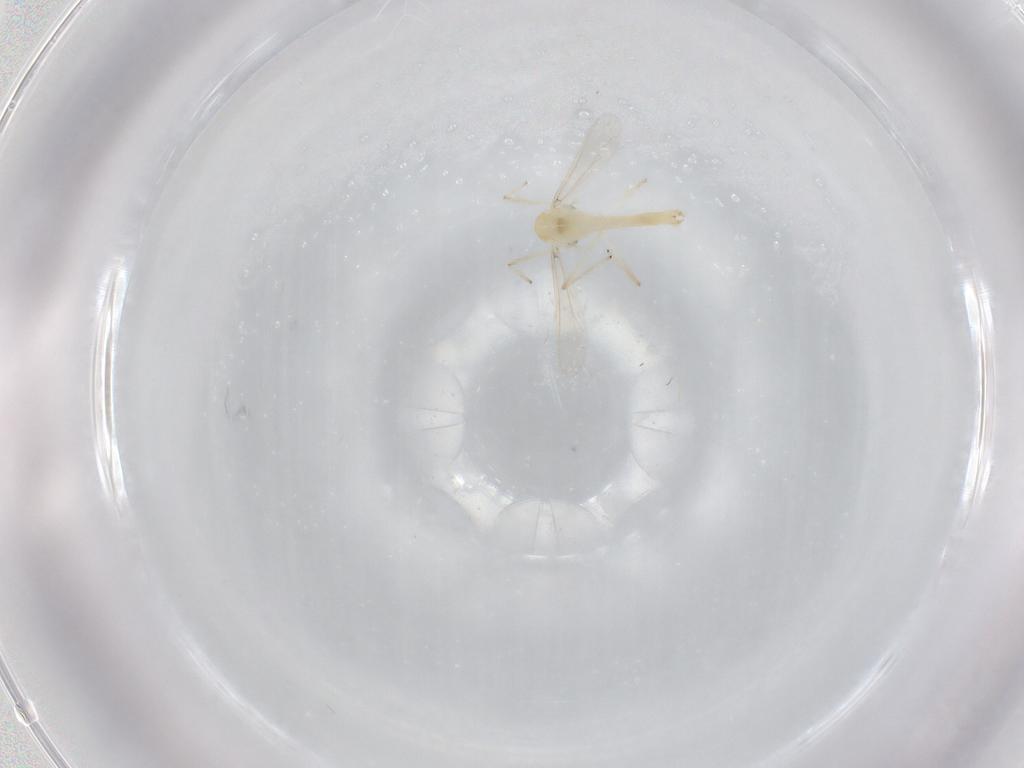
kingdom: Animalia
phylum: Arthropoda
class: Insecta
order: Diptera
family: Chironomidae
